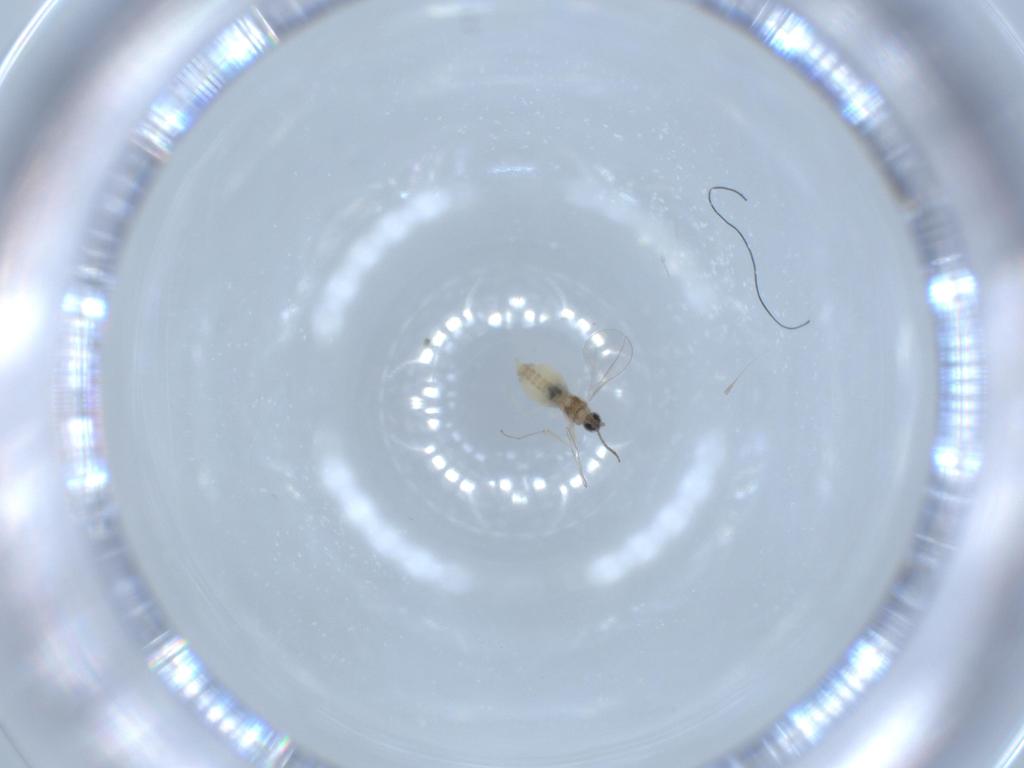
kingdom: Animalia
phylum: Arthropoda
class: Insecta
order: Diptera
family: Cecidomyiidae
